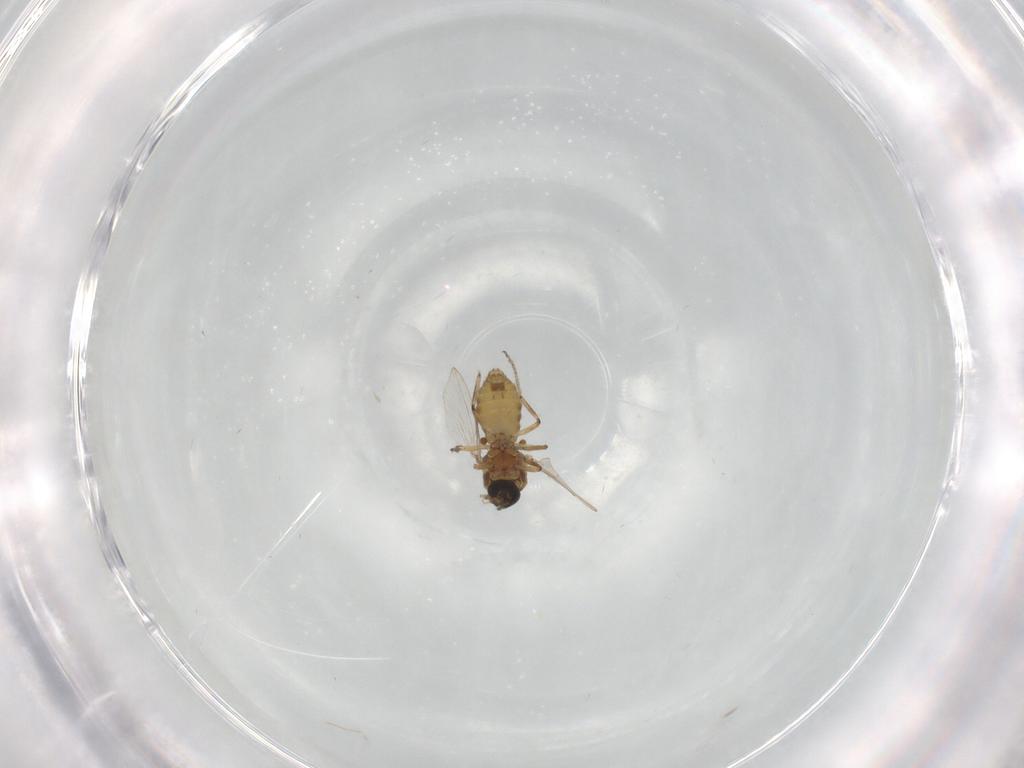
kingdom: Animalia
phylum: Arthropoda
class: Insecta
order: Diptera
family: Ceratopogonidae
